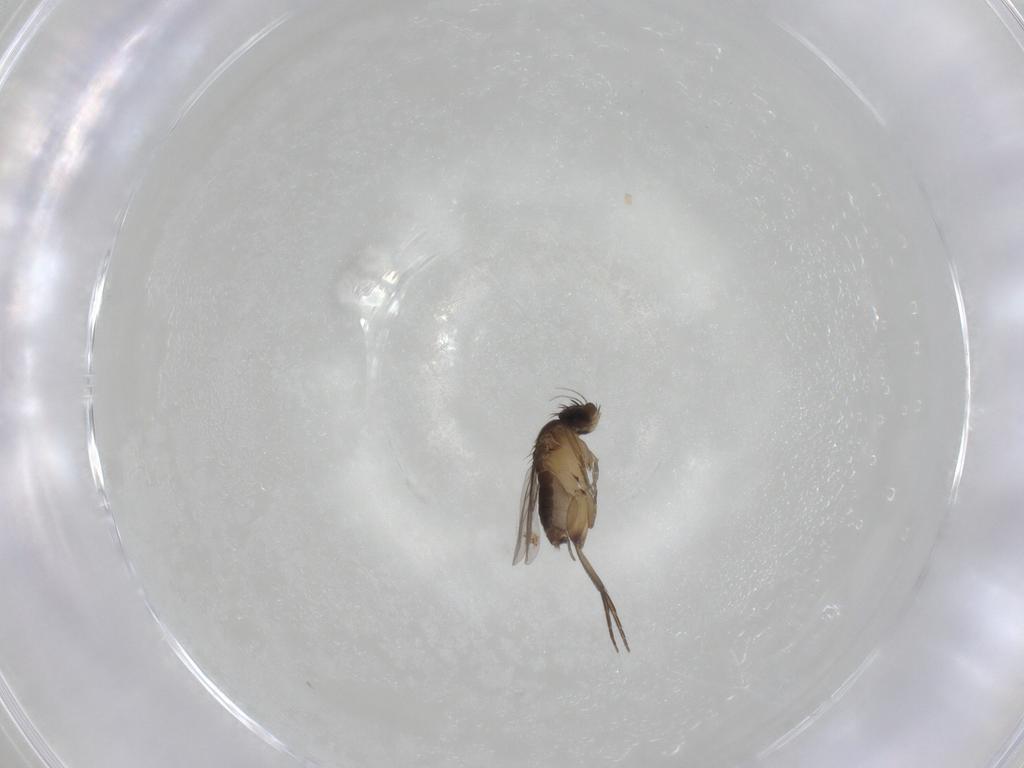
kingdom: Animalia
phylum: Arthropoda
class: Insecta
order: Diptera
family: Phoridae
